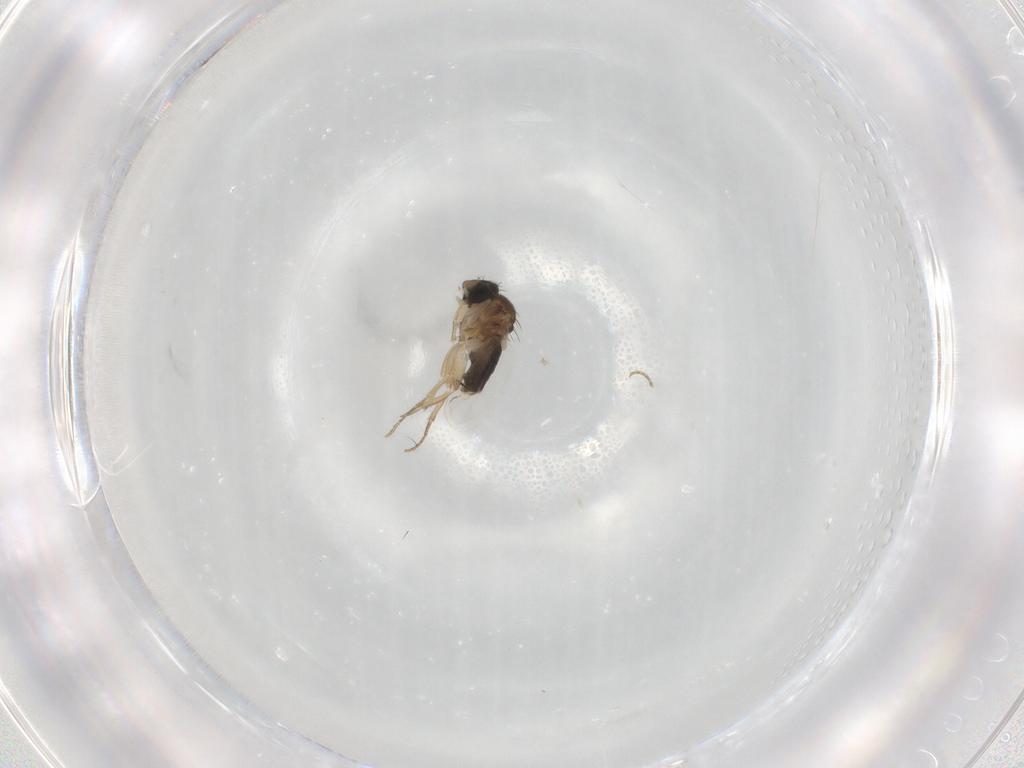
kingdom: Animalia
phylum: Arthropoda
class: Insecta
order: Diptera
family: Phoridae
